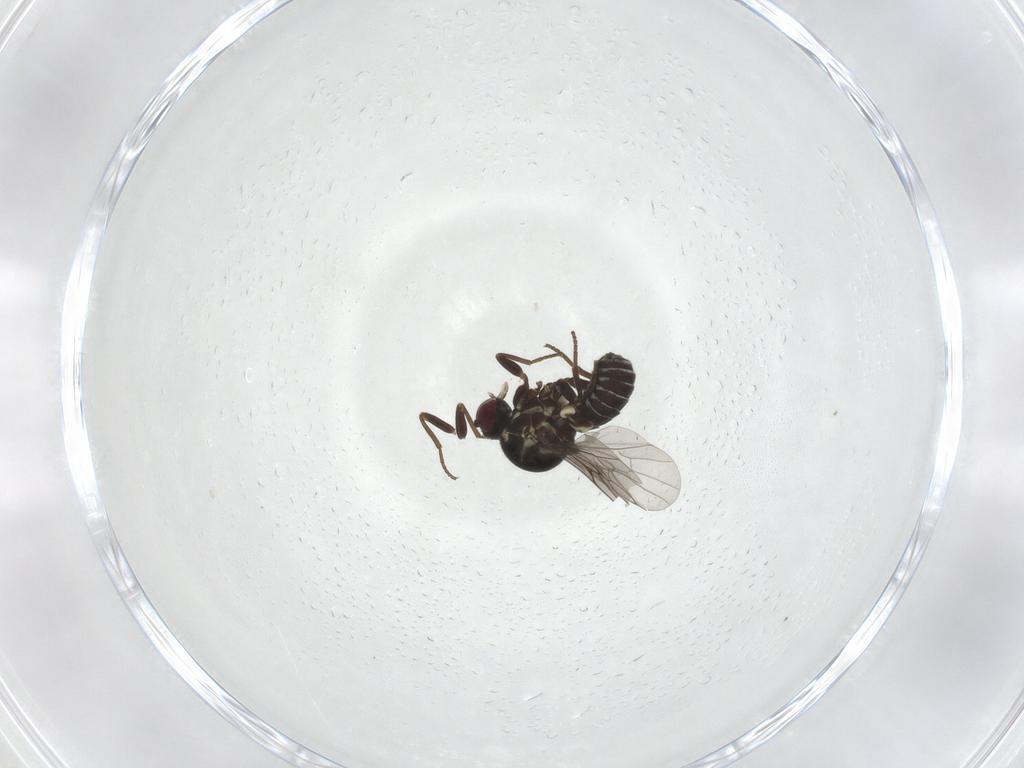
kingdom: Animalia
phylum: Arthropoda
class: Insecta
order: Diptera
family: Bombyliidae
